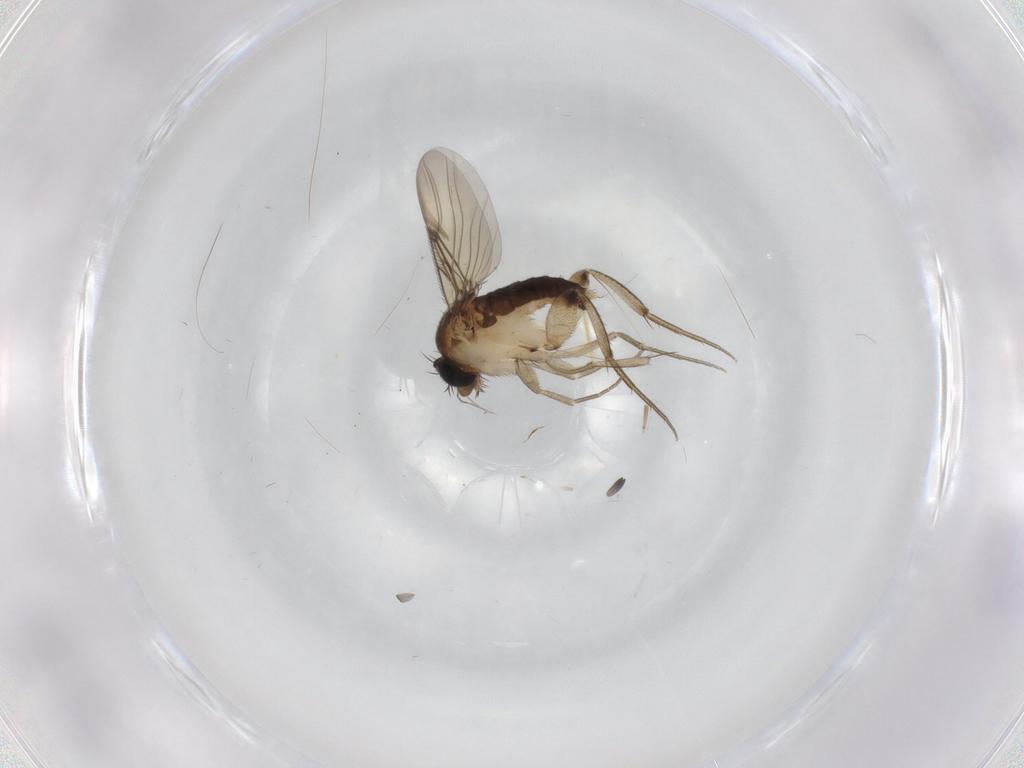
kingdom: Animalia
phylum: Arthropoda
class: Insecta
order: Diptera
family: Phoridae
